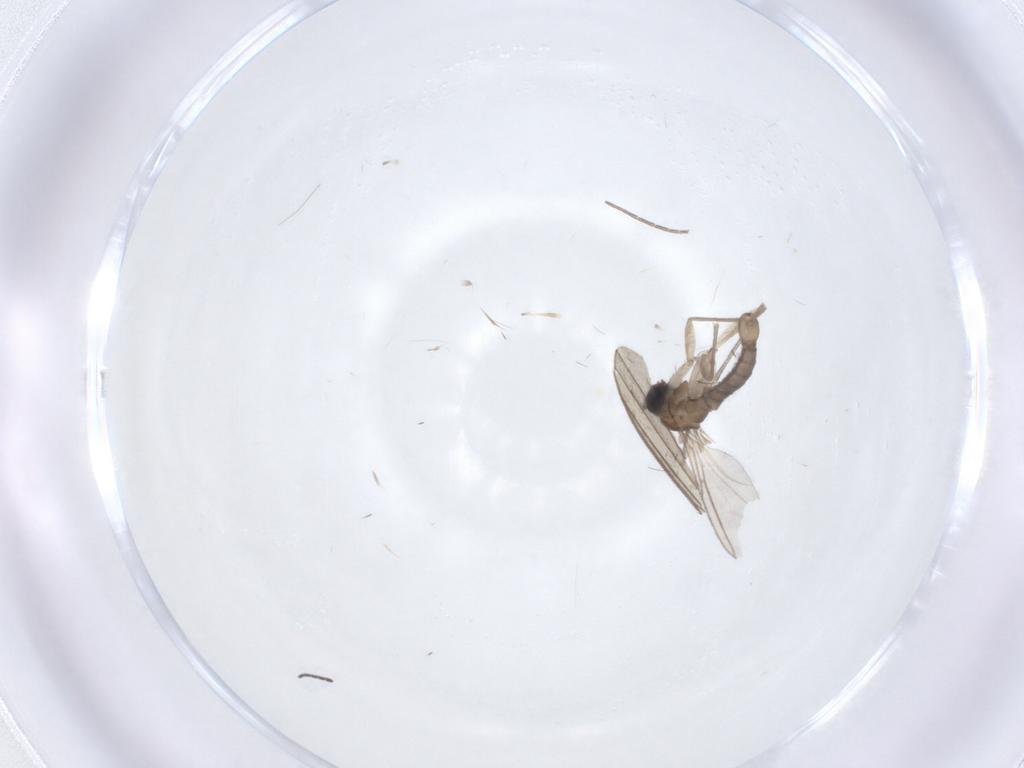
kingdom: Animalia
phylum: Arthropoda
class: Insecta
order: Diptera
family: Sciaridae
